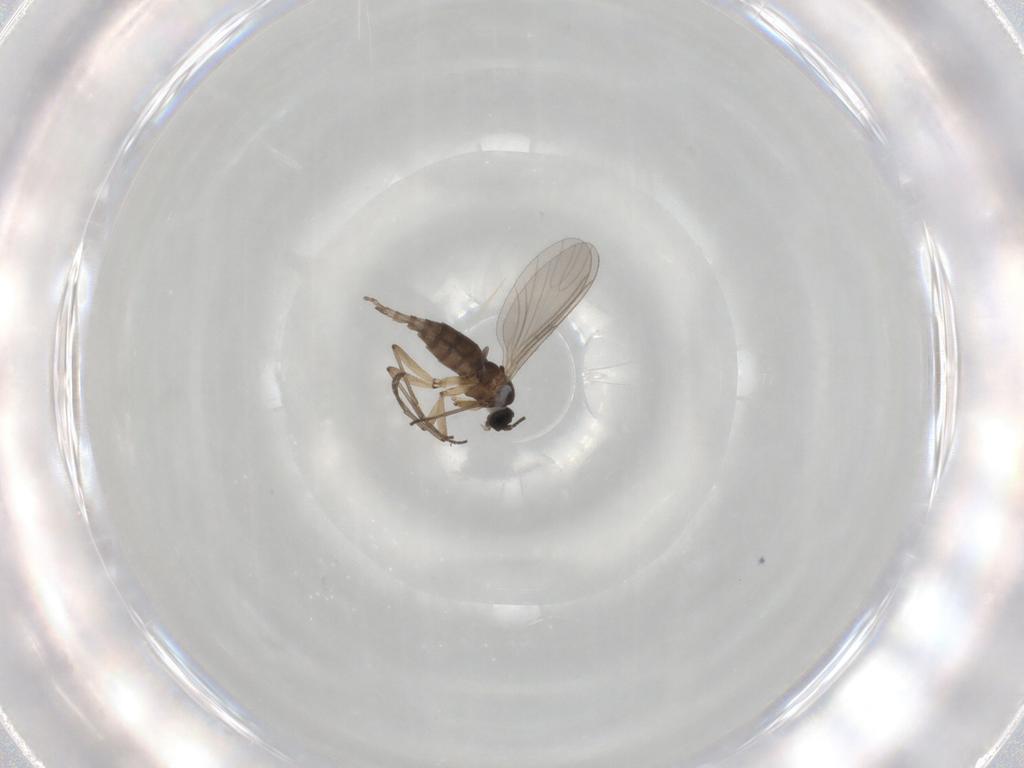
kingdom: Animalia
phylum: Arthropoda
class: Insecta
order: Diptera
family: Sciaridae
